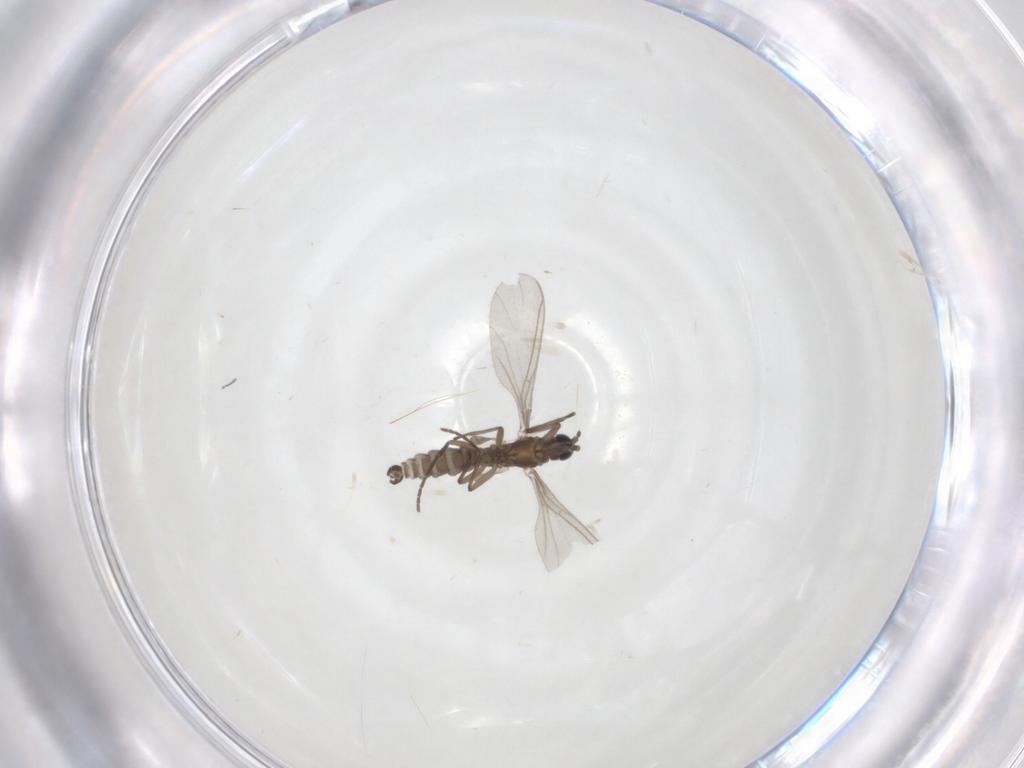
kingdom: Animalia
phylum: Arthropoda
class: Insecta
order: Diptera
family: Sciaridae
